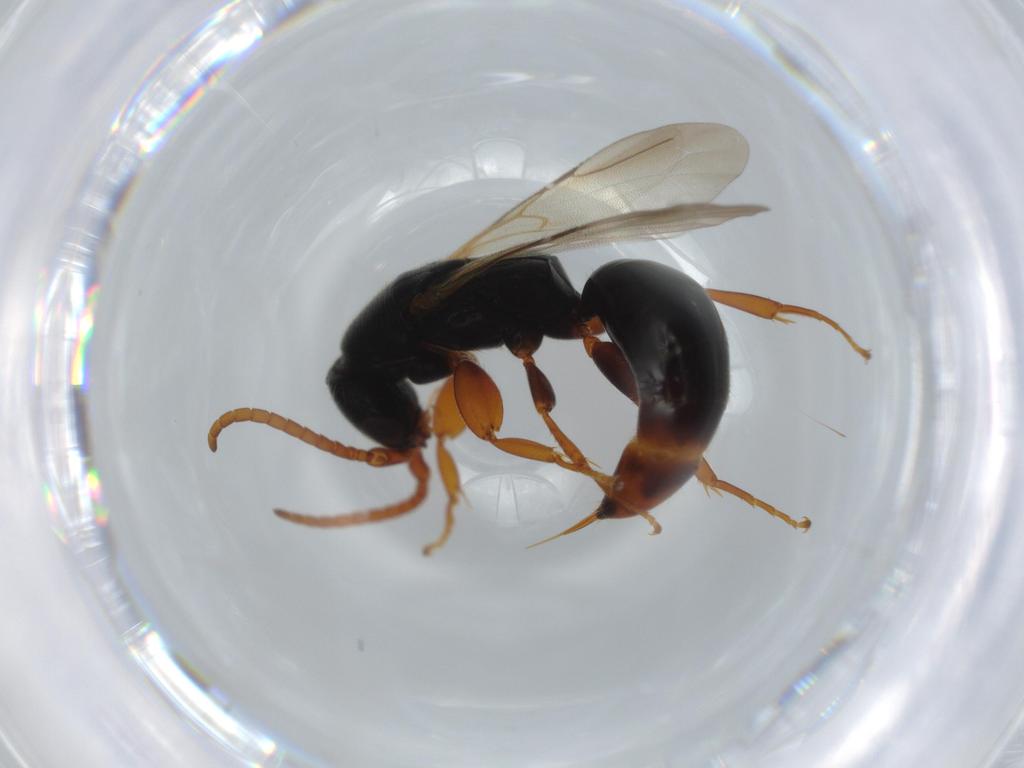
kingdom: Animalia
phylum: Arthropoda
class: Insecta
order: Hymenoptera
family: Bethylidae
